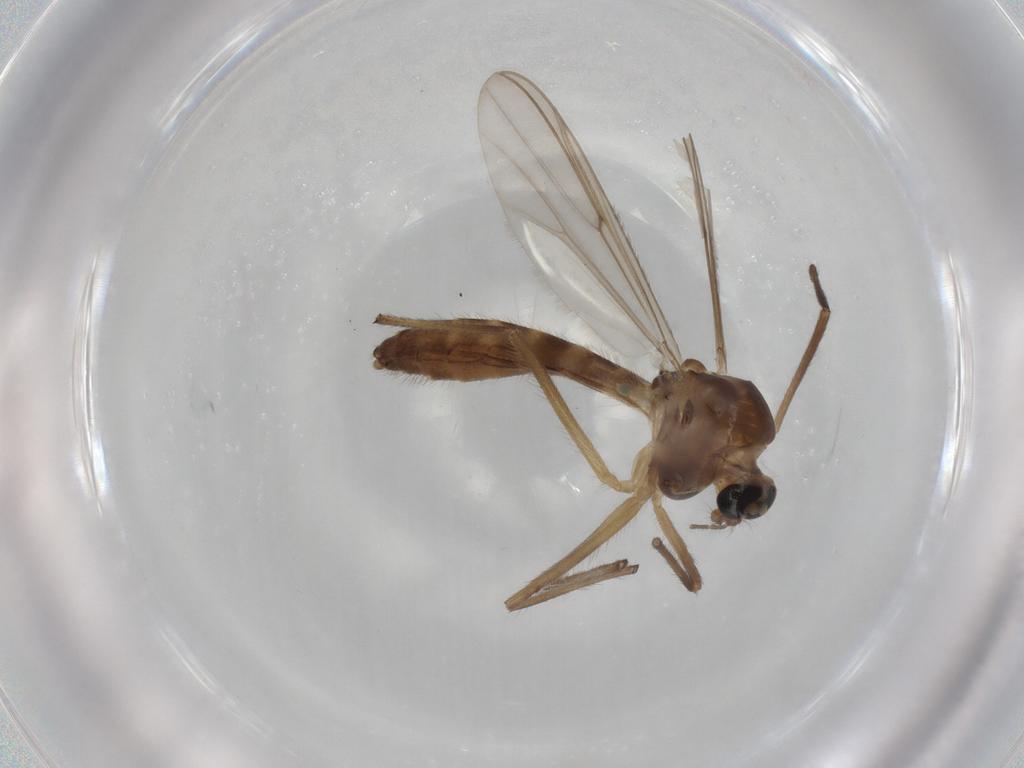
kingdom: Animalia
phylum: Arthropoda
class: Insecta
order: Diptera
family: Chironomidae
